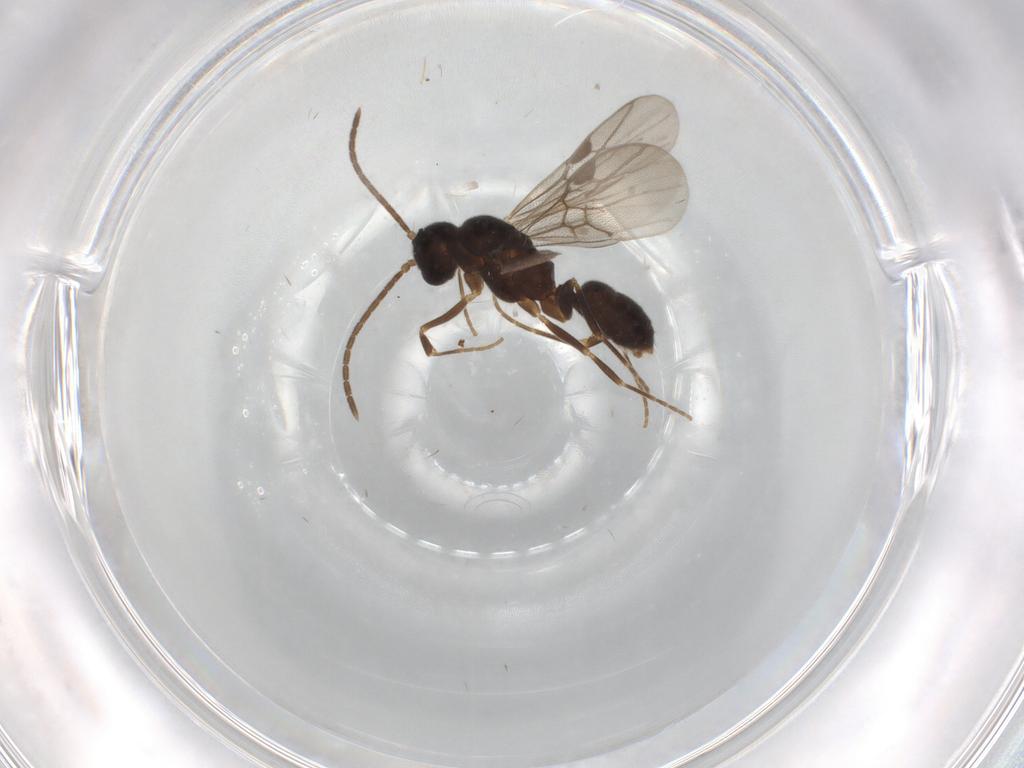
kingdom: Animalia
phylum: Arthropoda
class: Insecta
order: Hymenoptera
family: Formicidae
